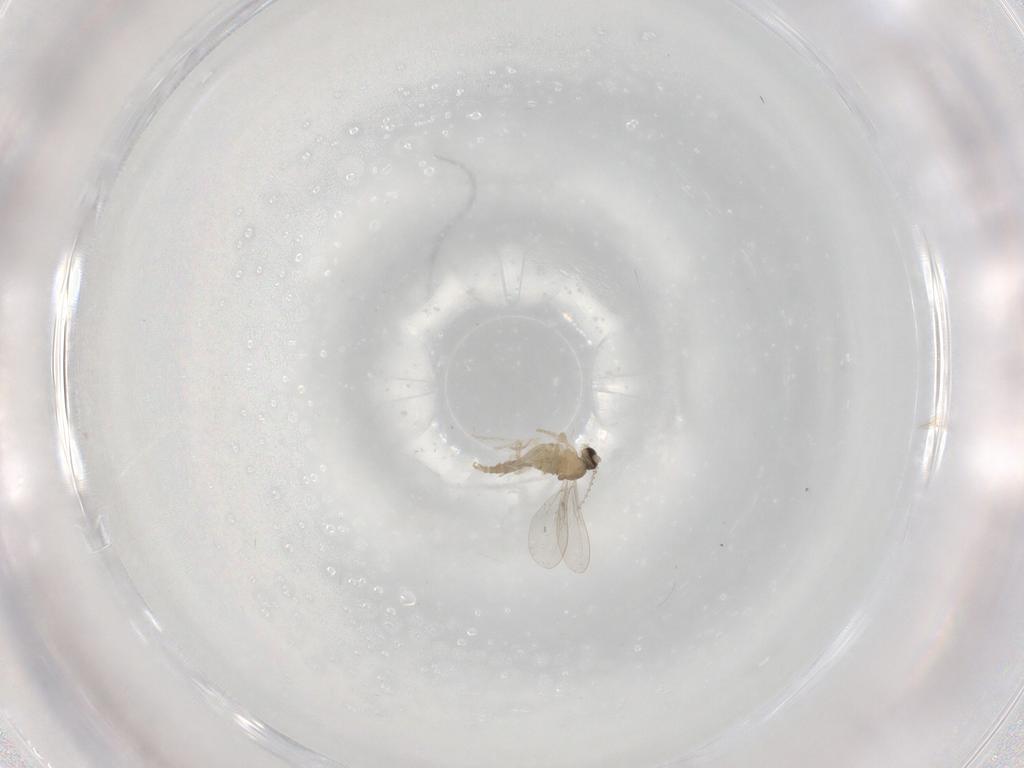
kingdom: Animalia
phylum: Arthropoda
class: Insecta
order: Diptera
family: Cecidomyiidae
